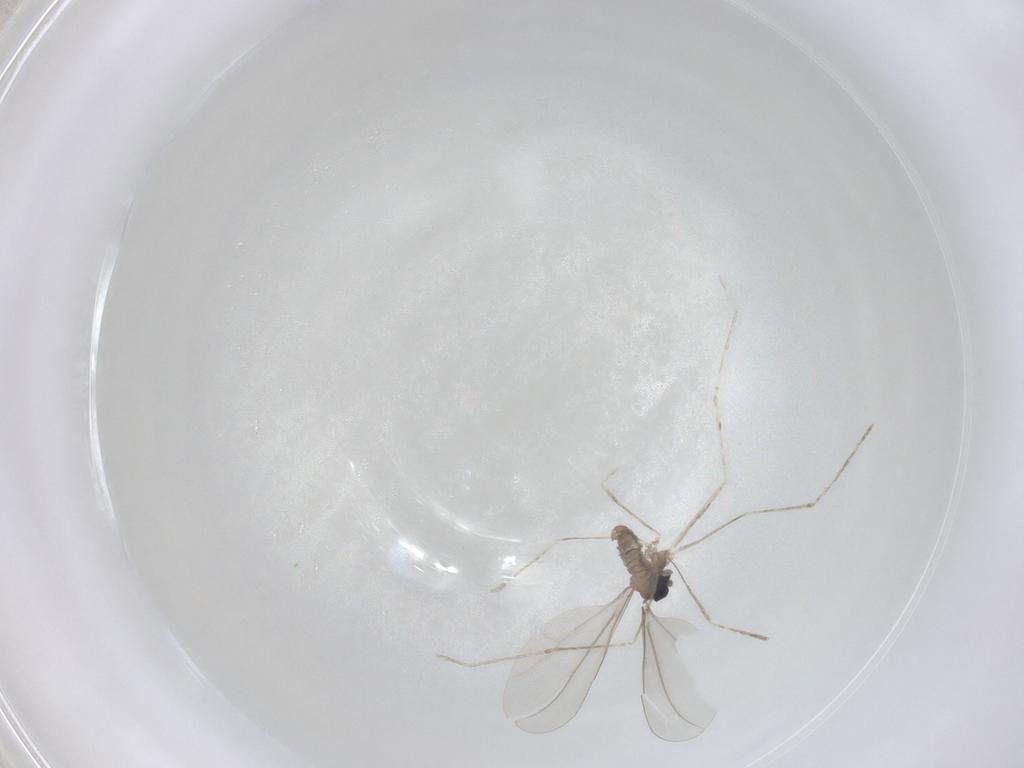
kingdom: Animalia
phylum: Arthropoda
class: Insecta
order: Diptera
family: Cecidomyiidae
